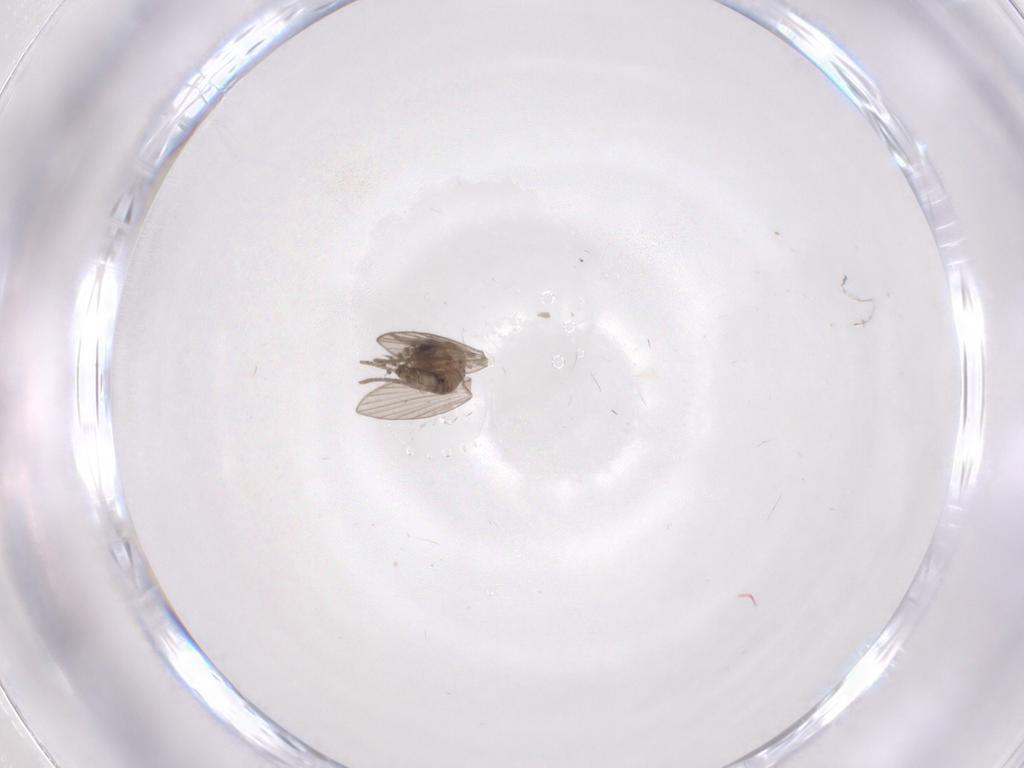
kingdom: Animalia
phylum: Arthropoda
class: Insecta
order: Diptera
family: Psychodidae
